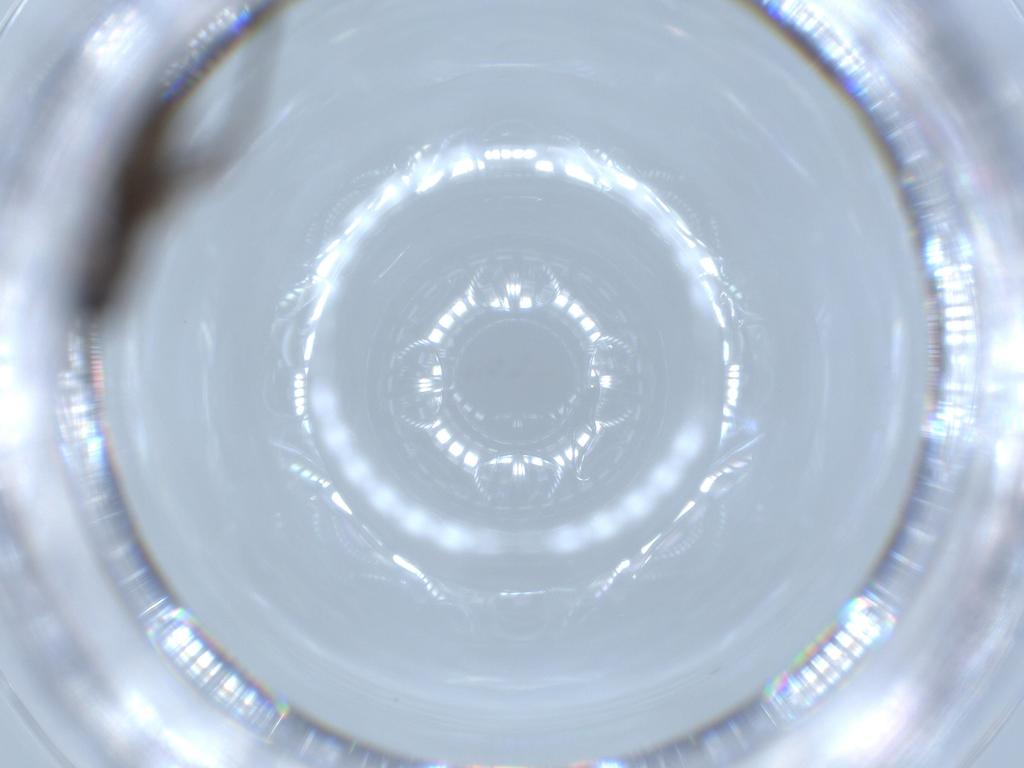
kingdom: Animalia
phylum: Arthropoda
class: Insecta
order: Diptera
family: Sciaridae
